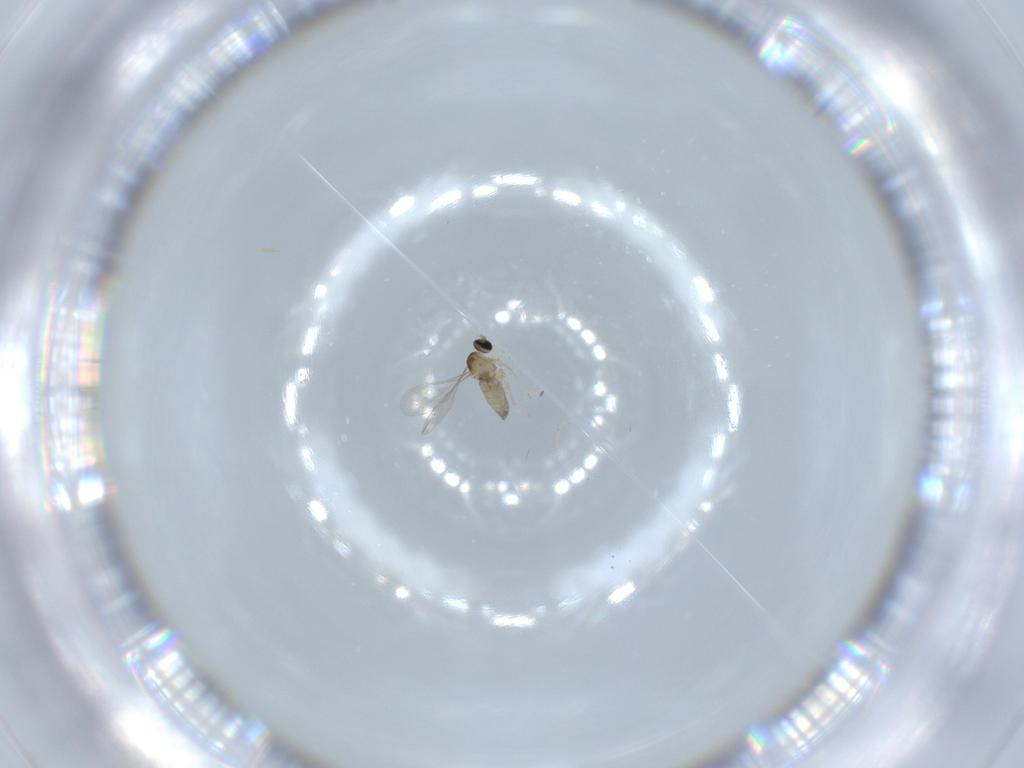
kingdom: Animalia
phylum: Arthropoda
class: Insecta
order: Diptera
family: Cecidomyiidae
